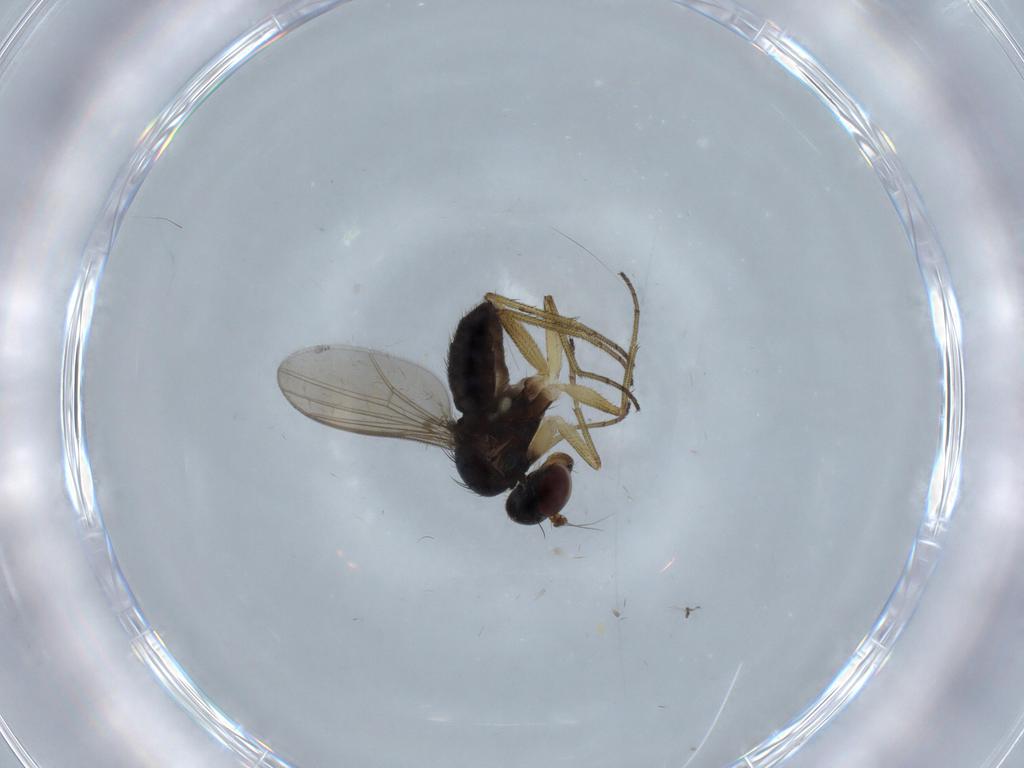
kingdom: Animalia
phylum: Arthropoda
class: Insecta
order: Diptera
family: Dolichopodidae
